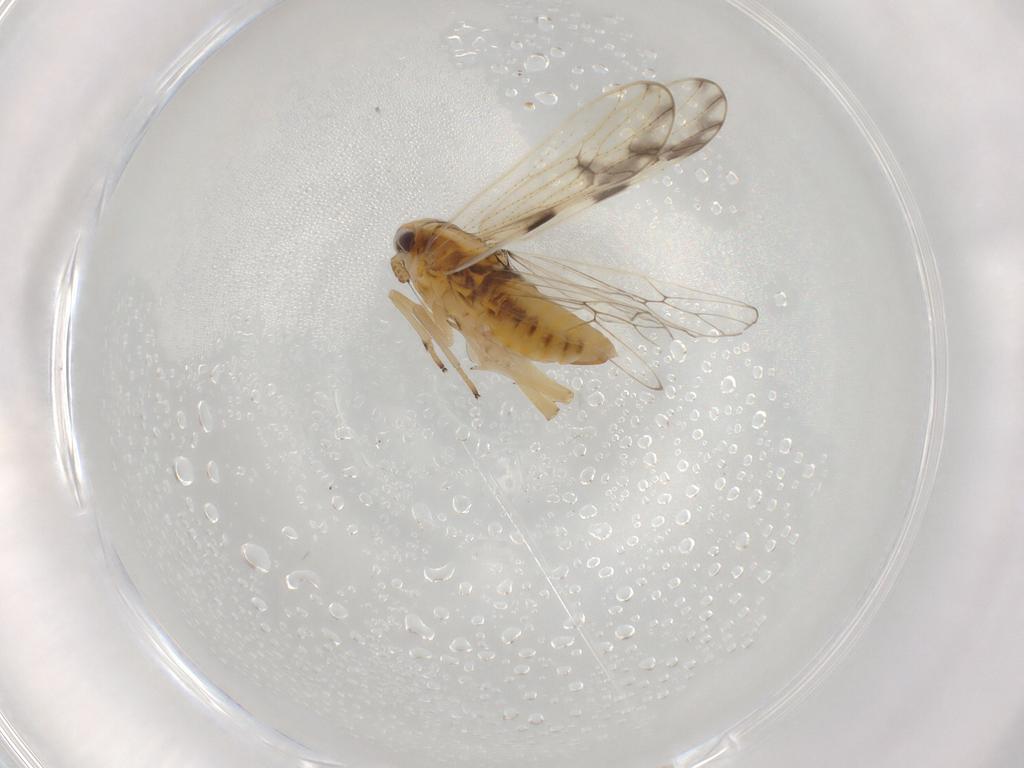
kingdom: Animalia
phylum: Arthropoda
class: Insecta
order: Hemiptera
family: Delphacidae
